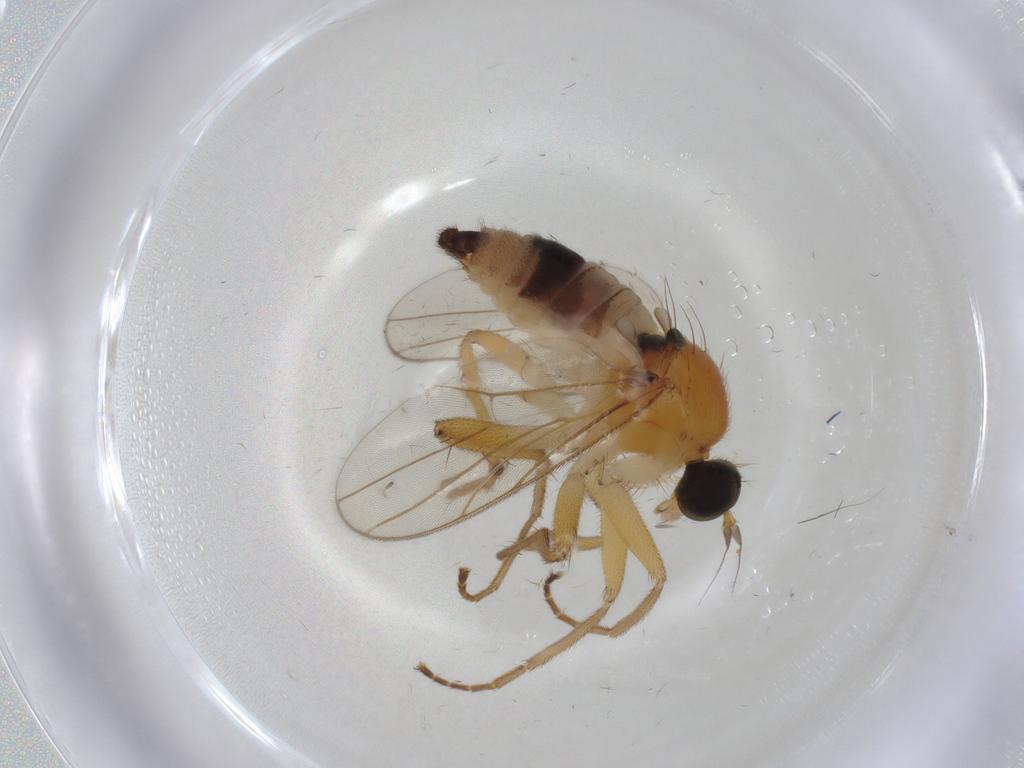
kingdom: Animalia
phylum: Arthropoda
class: Insecta
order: Diptera
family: Hybotidae
